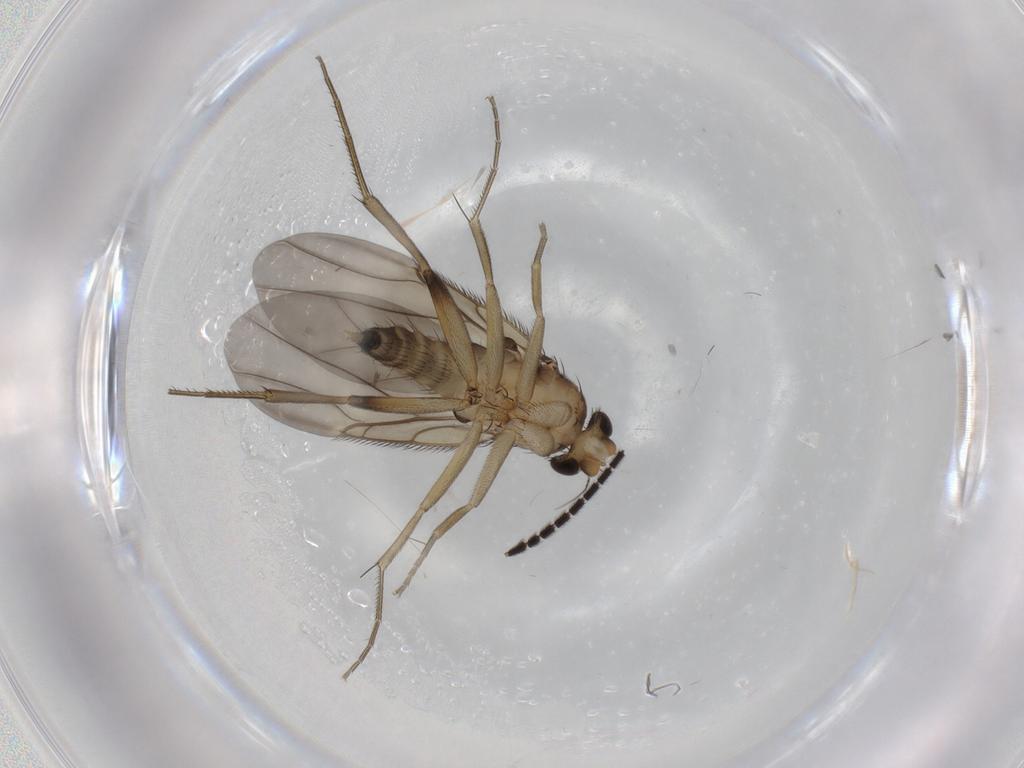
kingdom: Animalia
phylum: Arthropoda
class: Insecta
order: Diptera
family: Phoridae
